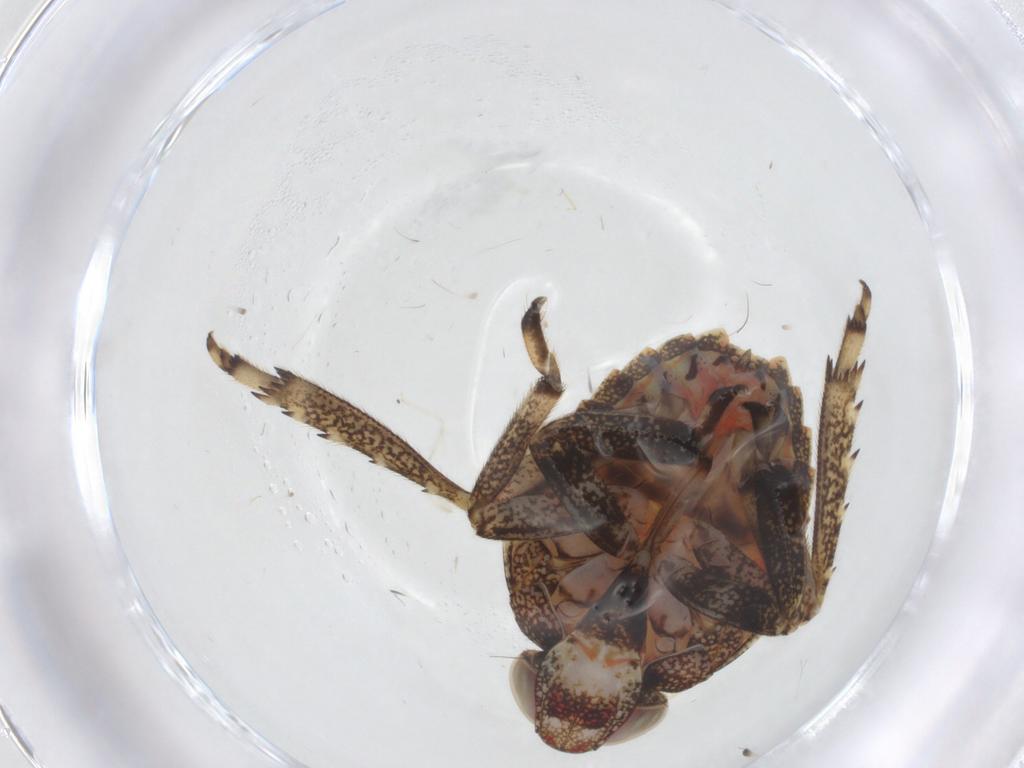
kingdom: Animalia
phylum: Arthropoda
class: Insecta
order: Hemiptera
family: Issidae
